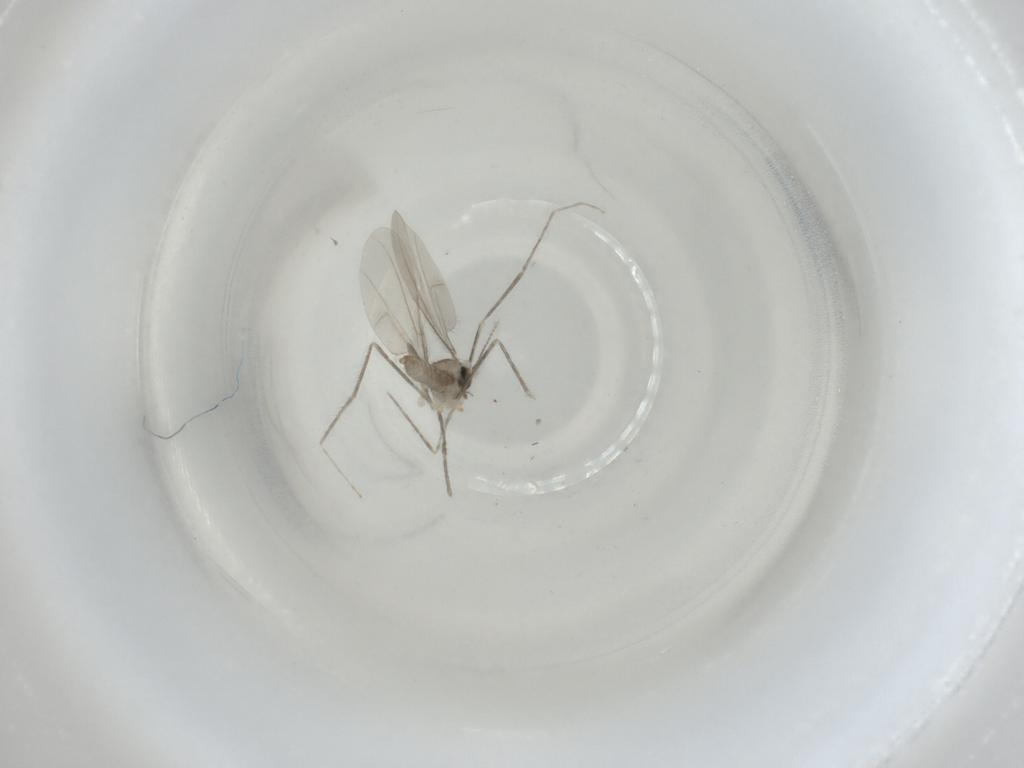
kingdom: Animalia
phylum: Arthropoda
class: Insecta
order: Diptera
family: Cecidomyiidae
